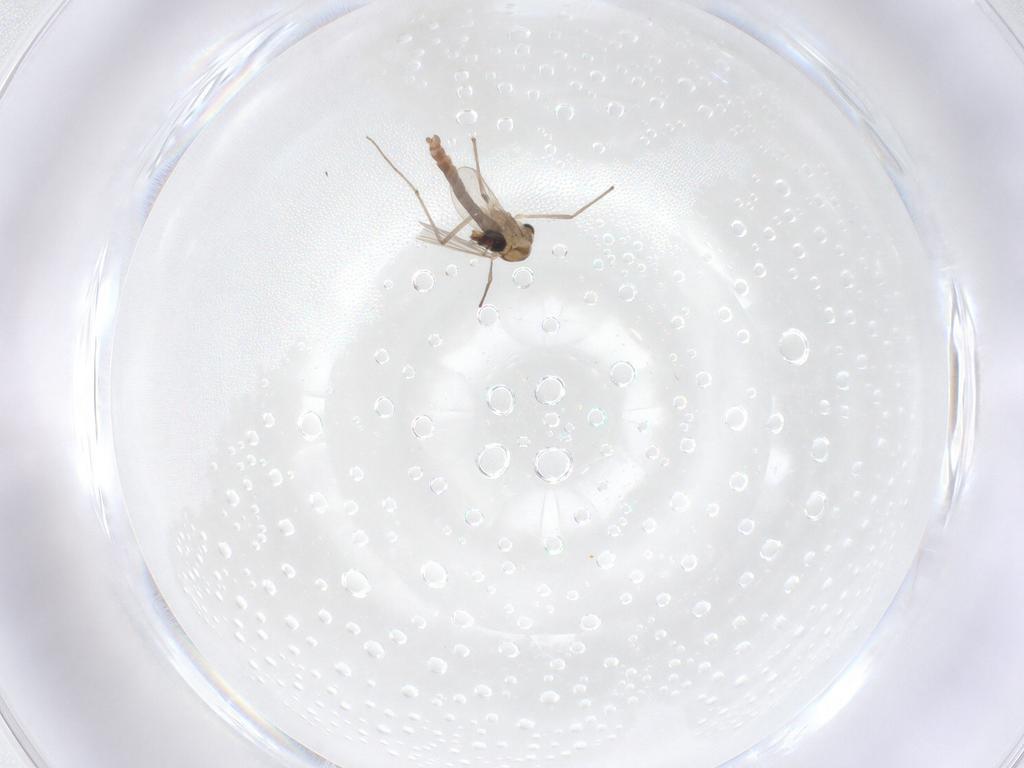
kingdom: Animalia
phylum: Arthropoda
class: Insecta
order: Diptera
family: Chironomidae
